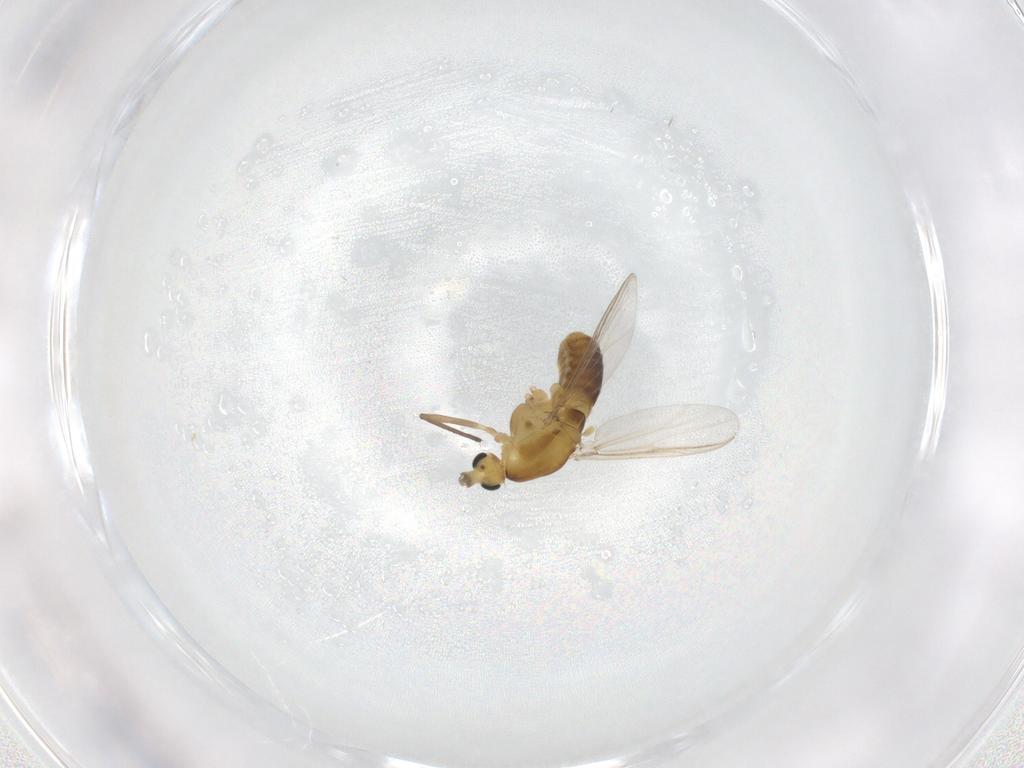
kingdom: Animalia
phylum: Arthropoda
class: Insecta
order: Diptera
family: Chironomidae
